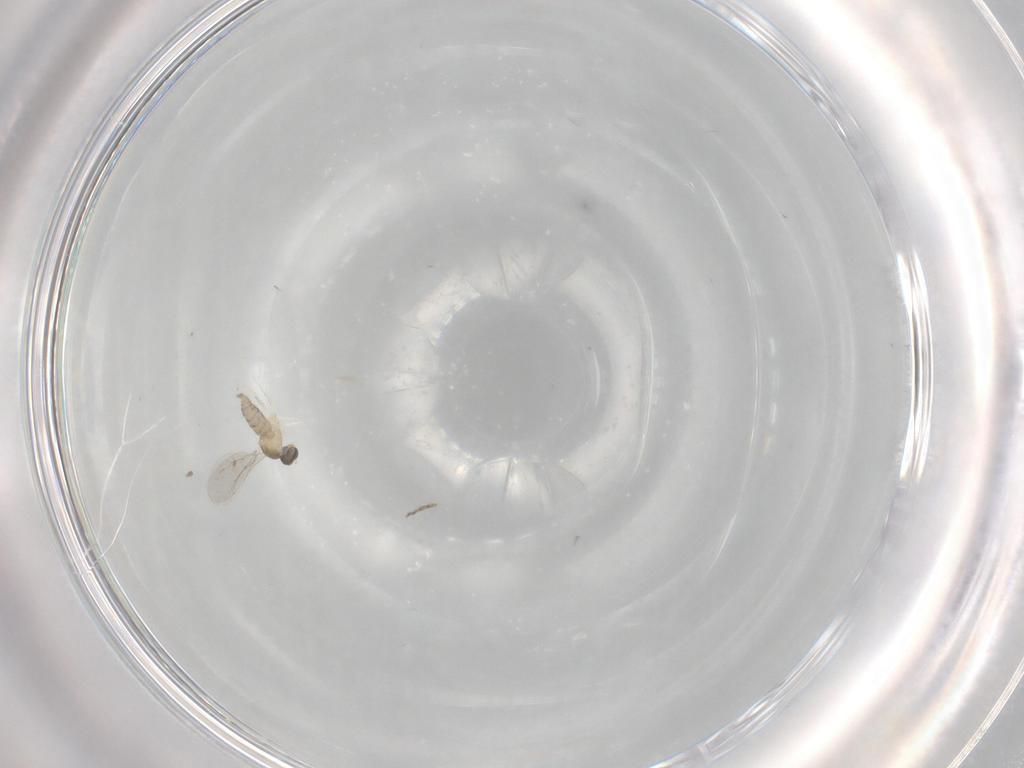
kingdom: Animalia
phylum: Arthropoda
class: Insecta
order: Diptera
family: Ceratopogonidae
